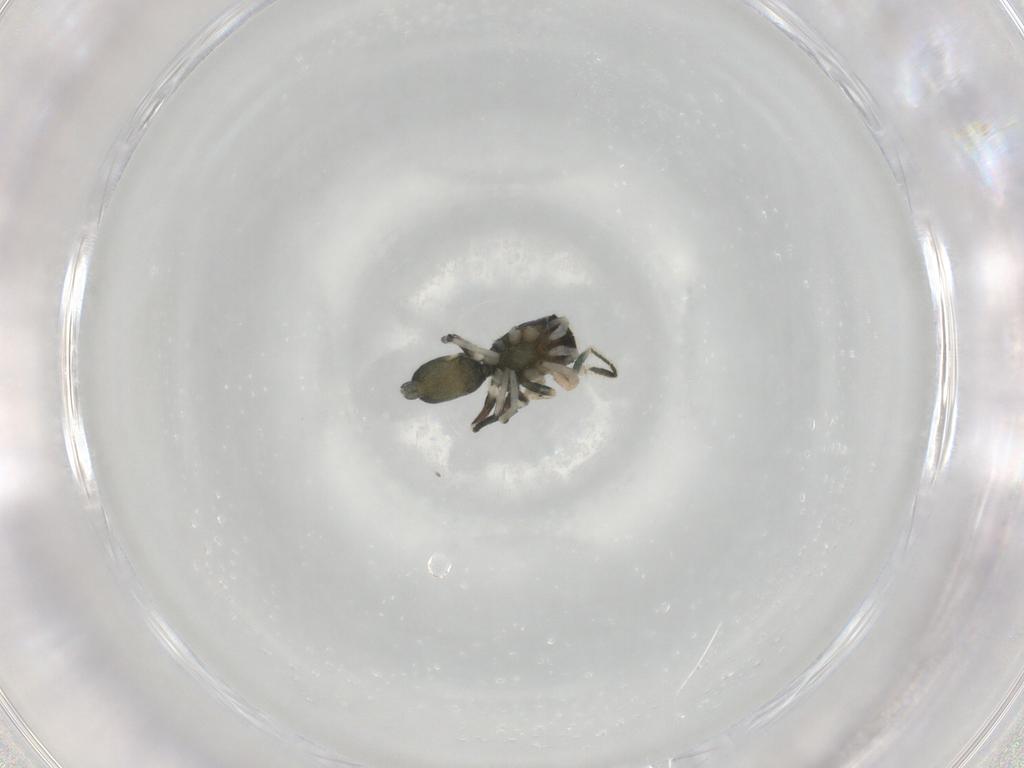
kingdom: Animalia
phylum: Arthropoda
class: Arachnida
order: Araneae
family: Salticidae
